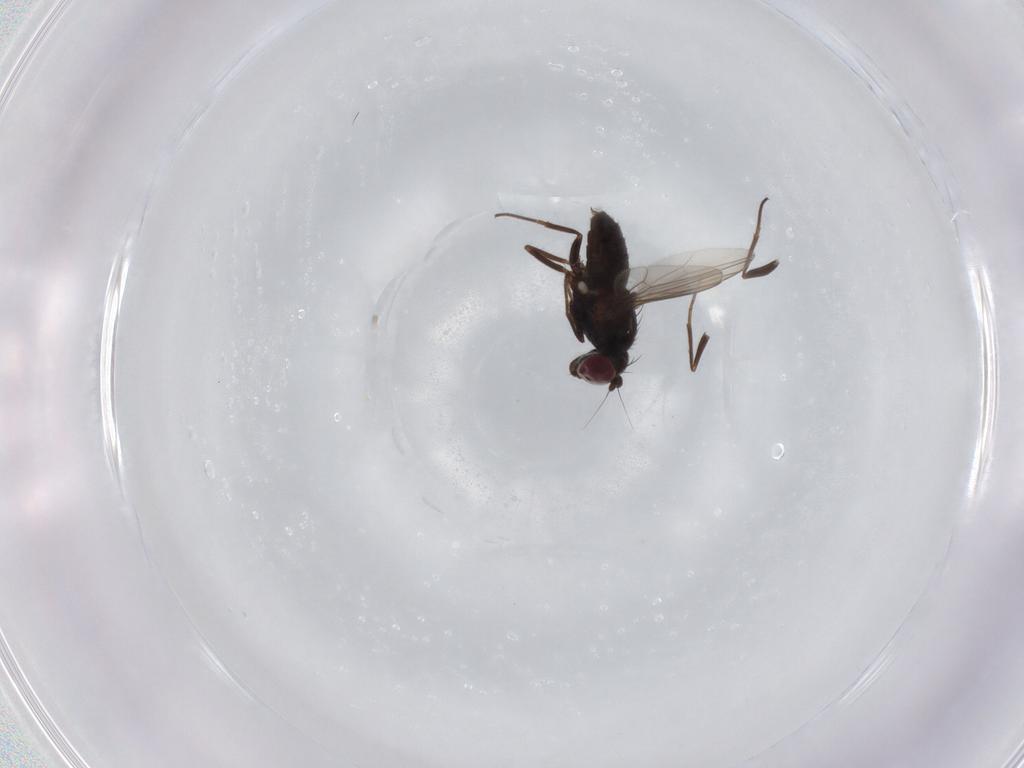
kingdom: Animalia
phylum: Arthropoda
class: Insecta
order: Diptera
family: Dolichopodidae
